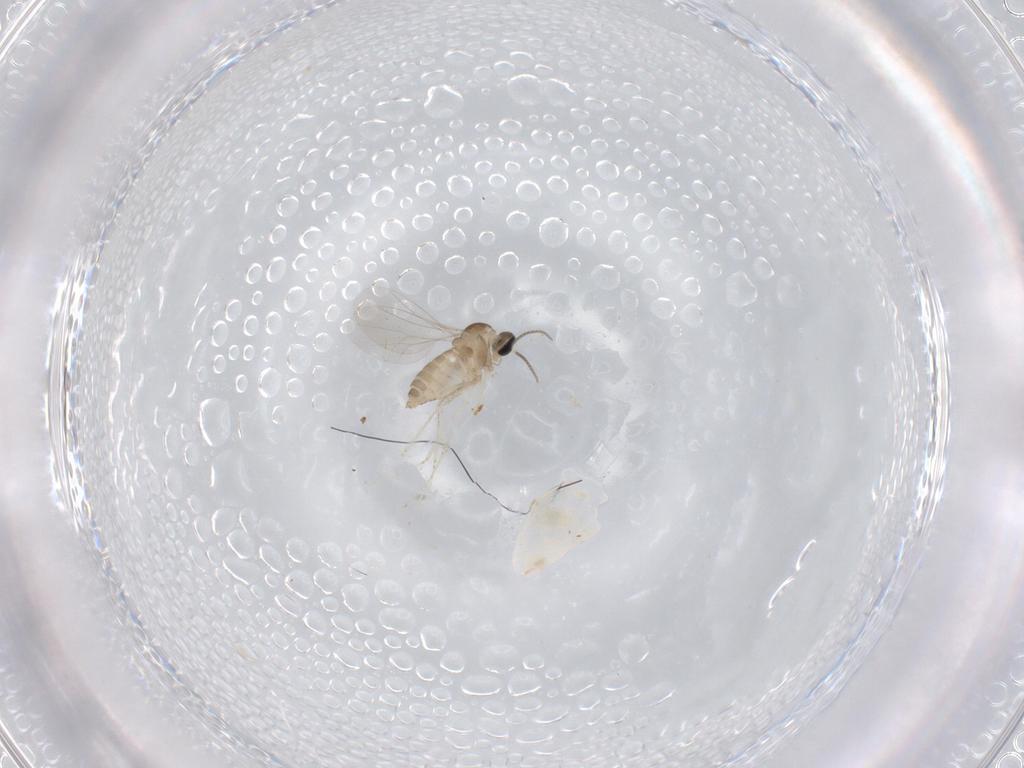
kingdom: Animalia
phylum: Arthropoda
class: Insecta
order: Diptera
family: Cecidomyiidae
